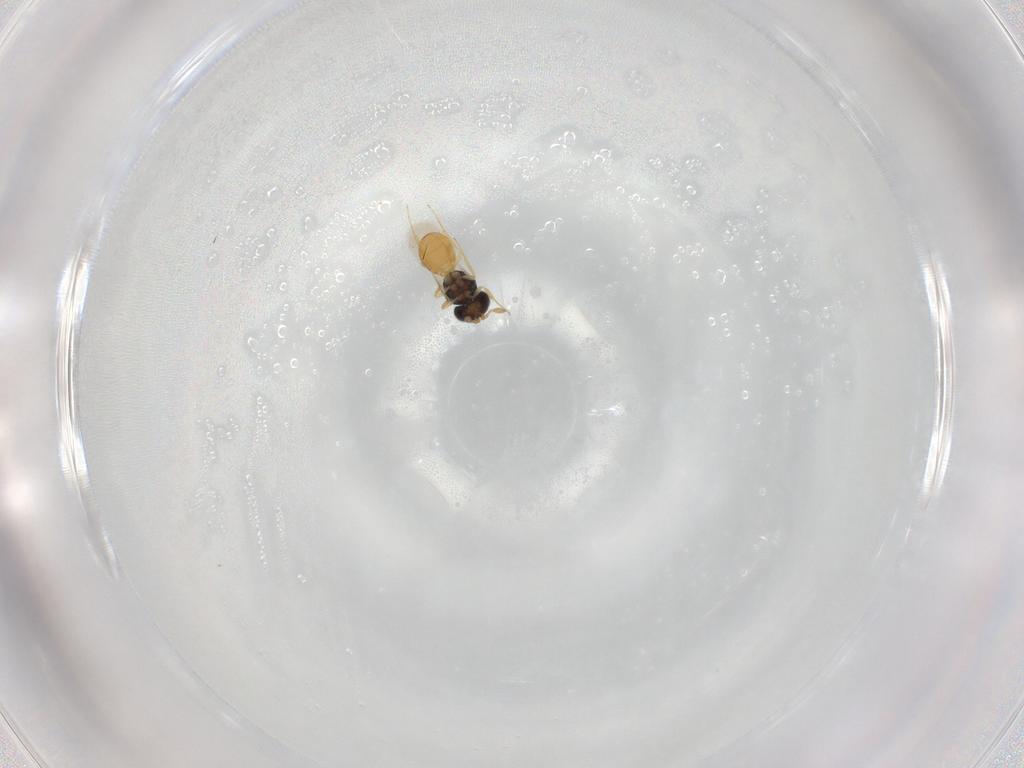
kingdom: Animalia
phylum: Arthropoda
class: Insecta
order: Hymenoptera
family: Scelionidae
